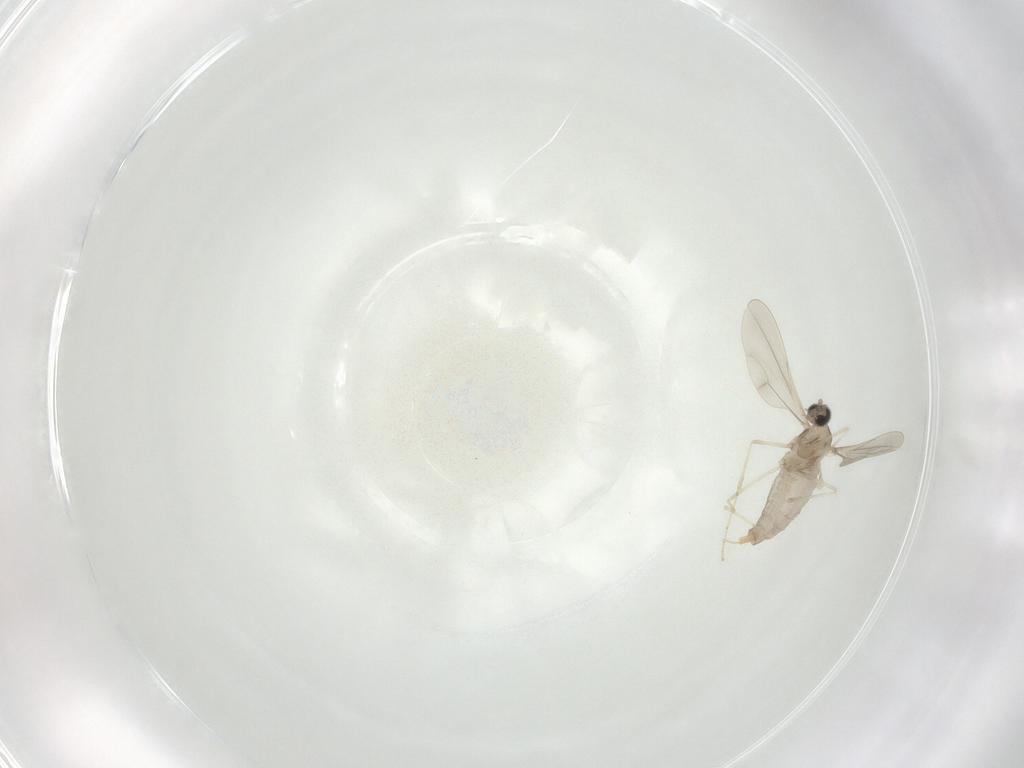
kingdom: Animalia
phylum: Arthropoda
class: Insecta
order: Diptera
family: Cecidomyiidae
